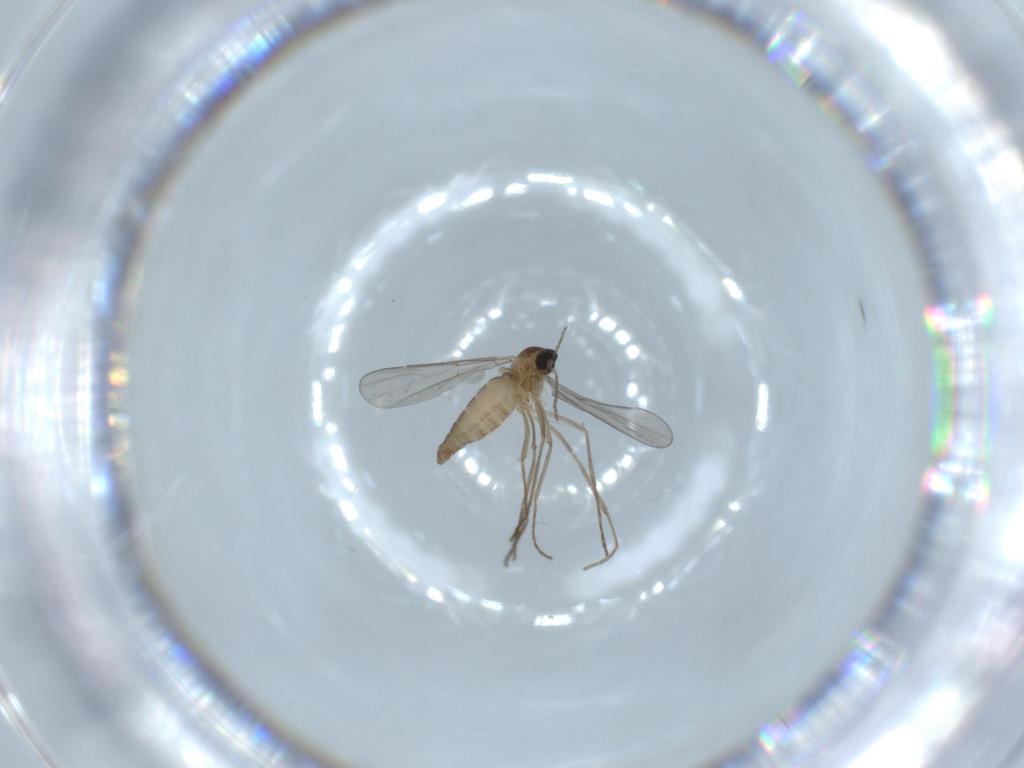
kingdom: Animalia
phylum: Arthropoda
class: Insecta
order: Diptera
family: Cecidomyiidae
